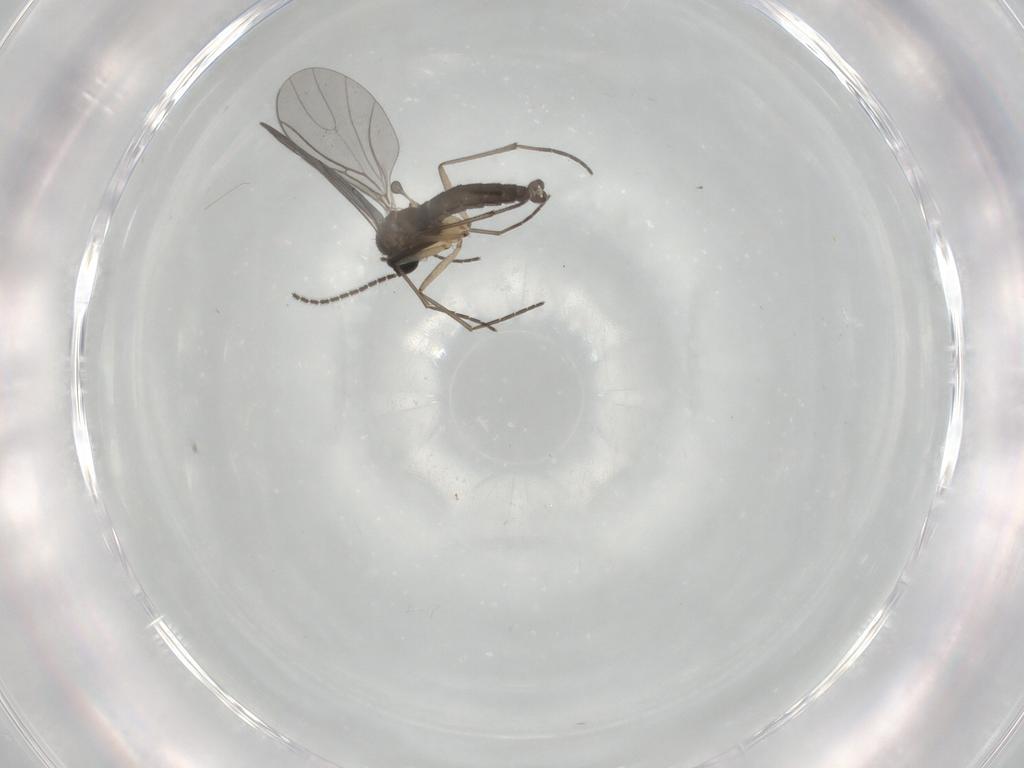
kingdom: Animalia
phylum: Arthropoda
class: Insecta
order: Diptera
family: Sciaridae
